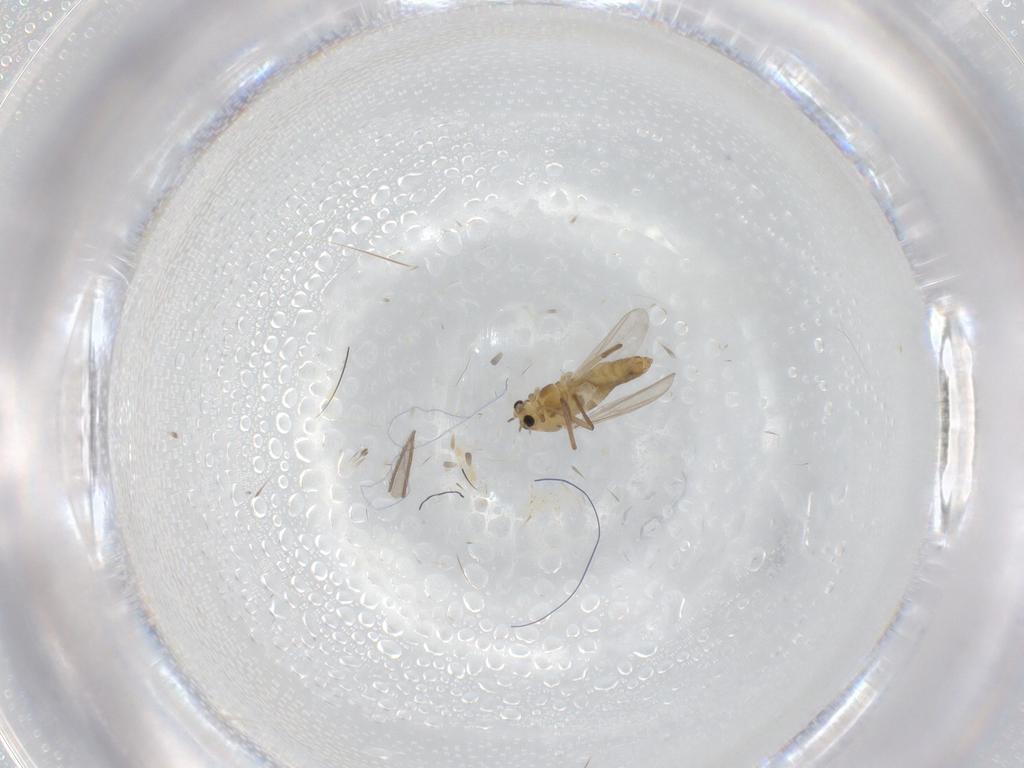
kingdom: Animalia
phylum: Arthropoda
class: Insecta
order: Diptera
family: Chironomidae
